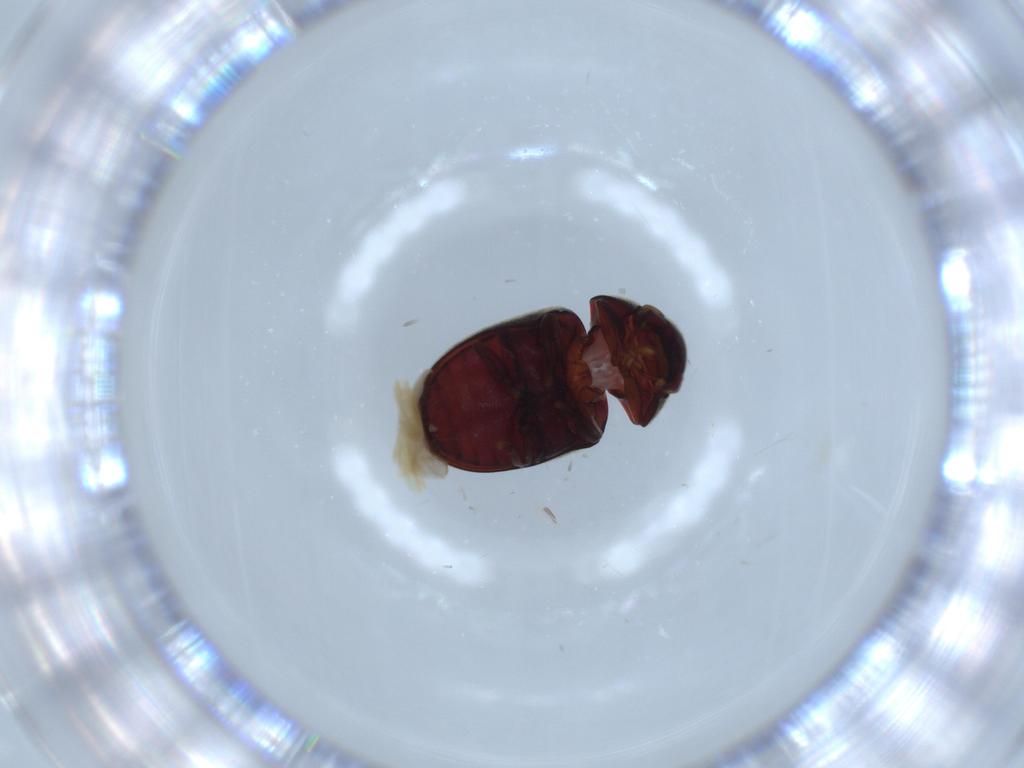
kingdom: Animalia
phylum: Arthropoda
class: Insecta
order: Coleoptera
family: Ptinidae
